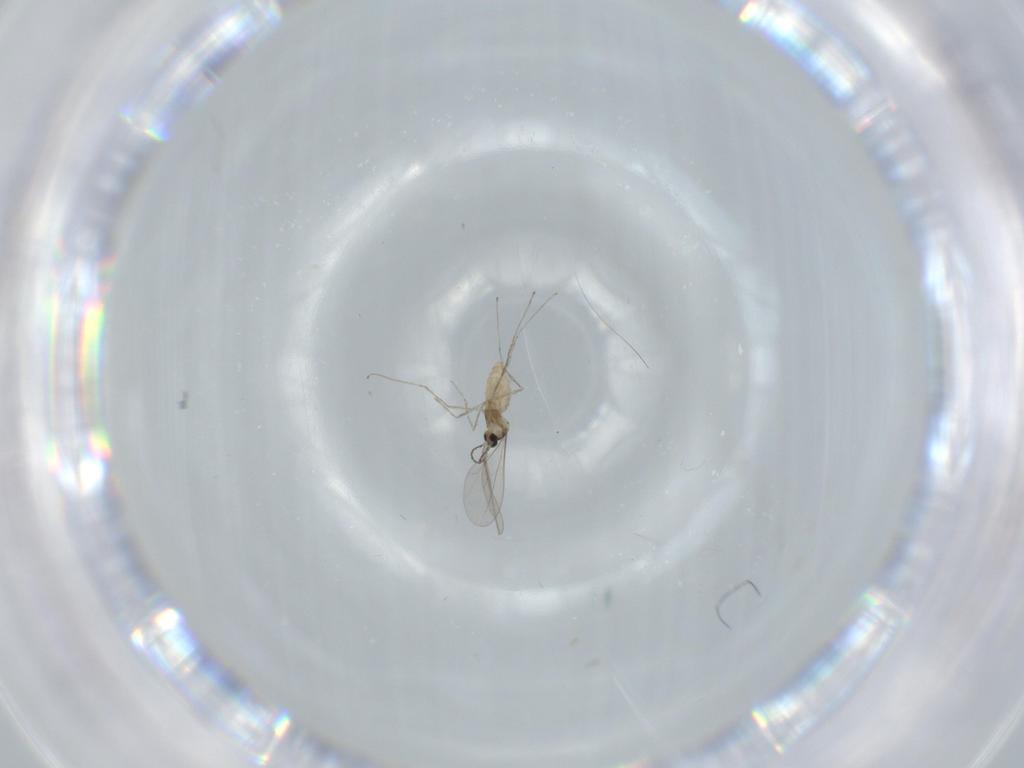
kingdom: Animalia
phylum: Arthropoda
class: Insecta
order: Diptera
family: Cecidomyiidae
